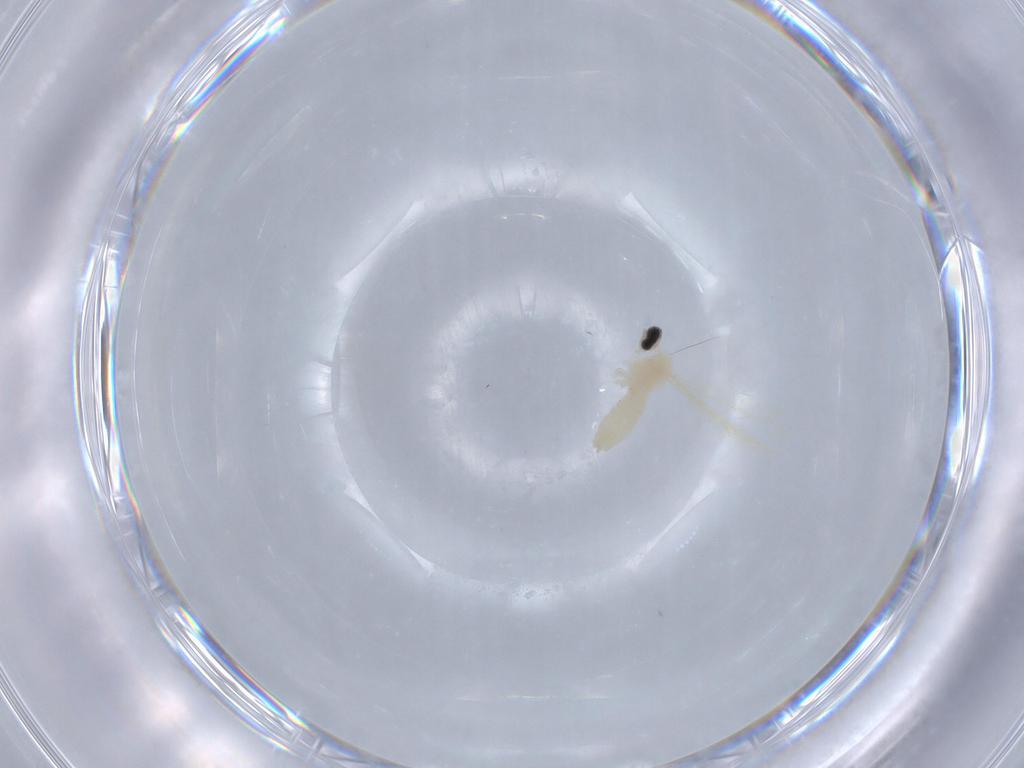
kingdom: Animalia
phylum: Arthropoda
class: Insecta
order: Diptera
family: Cecidomyiidae
